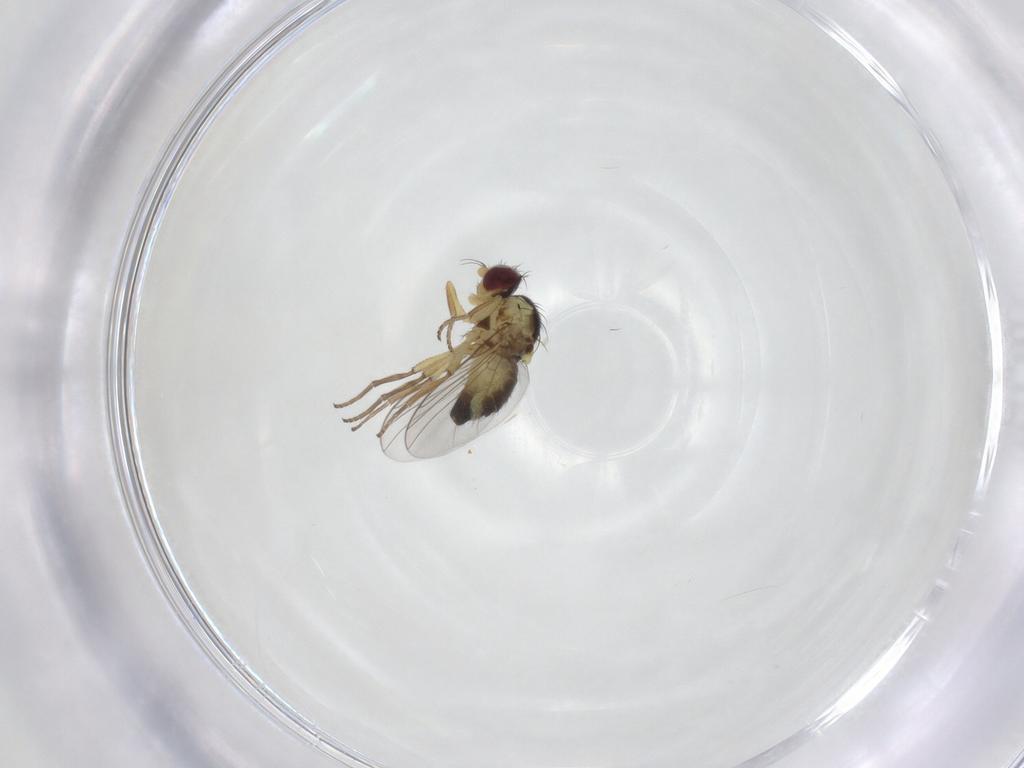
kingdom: Animalia
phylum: Arthropoda
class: Insecta
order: Diptera
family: Agromyzidae
